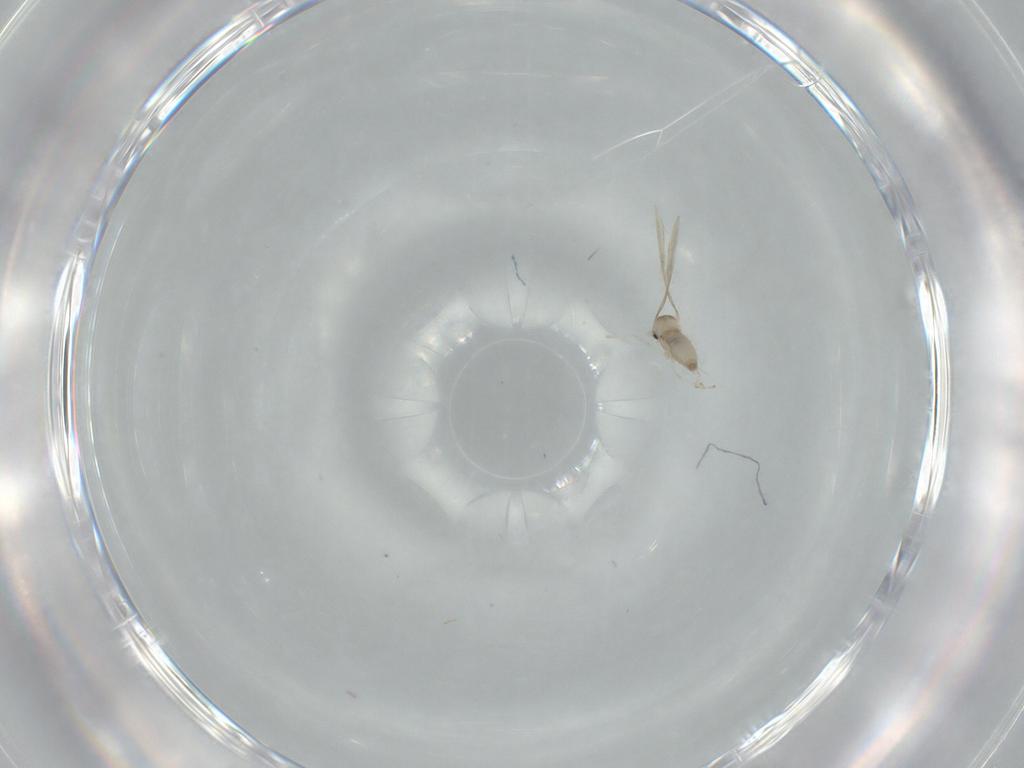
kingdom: Animalia
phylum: Arthropoda
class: Insecta
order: Diptera
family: Cecidomyiidae
